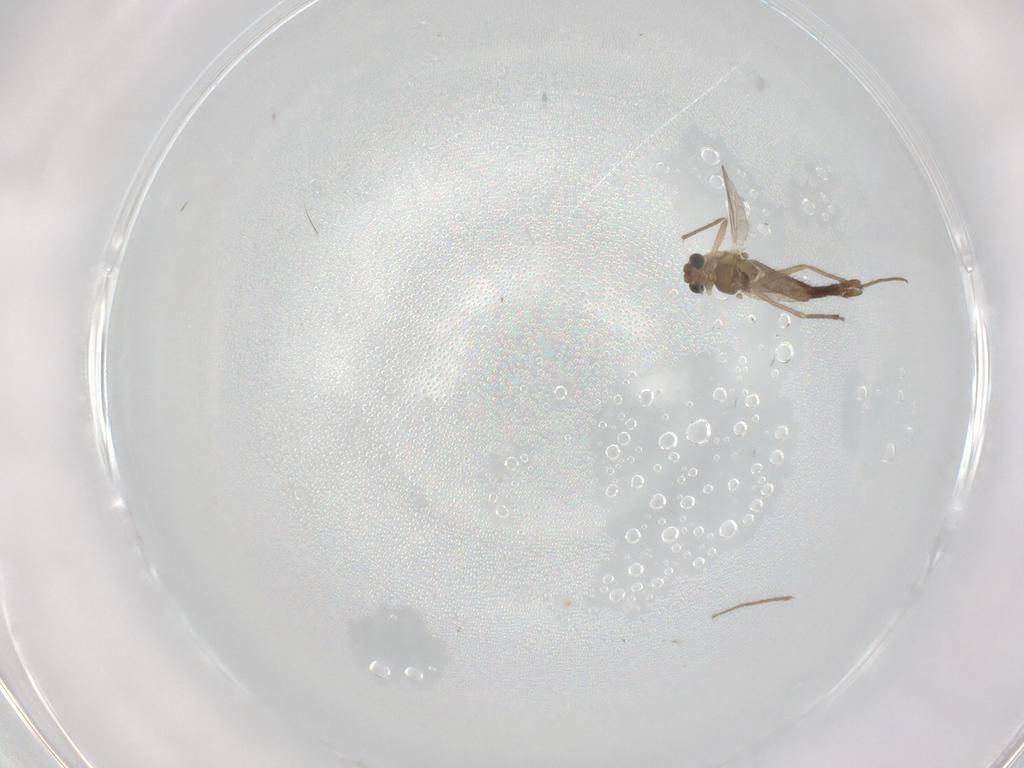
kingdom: Animalia
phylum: Arthropoda
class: Insecta
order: Diptera
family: Chironomidae
